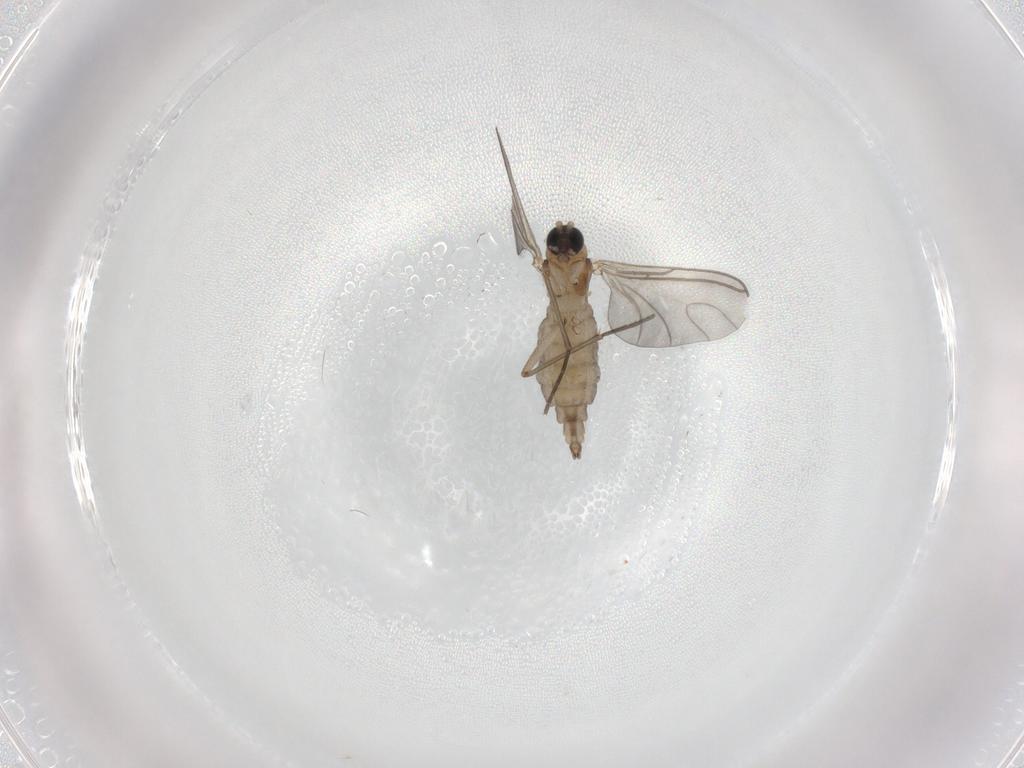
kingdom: Animalia
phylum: Arthropoda
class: Insecta
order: Diptera
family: Sciaridae
